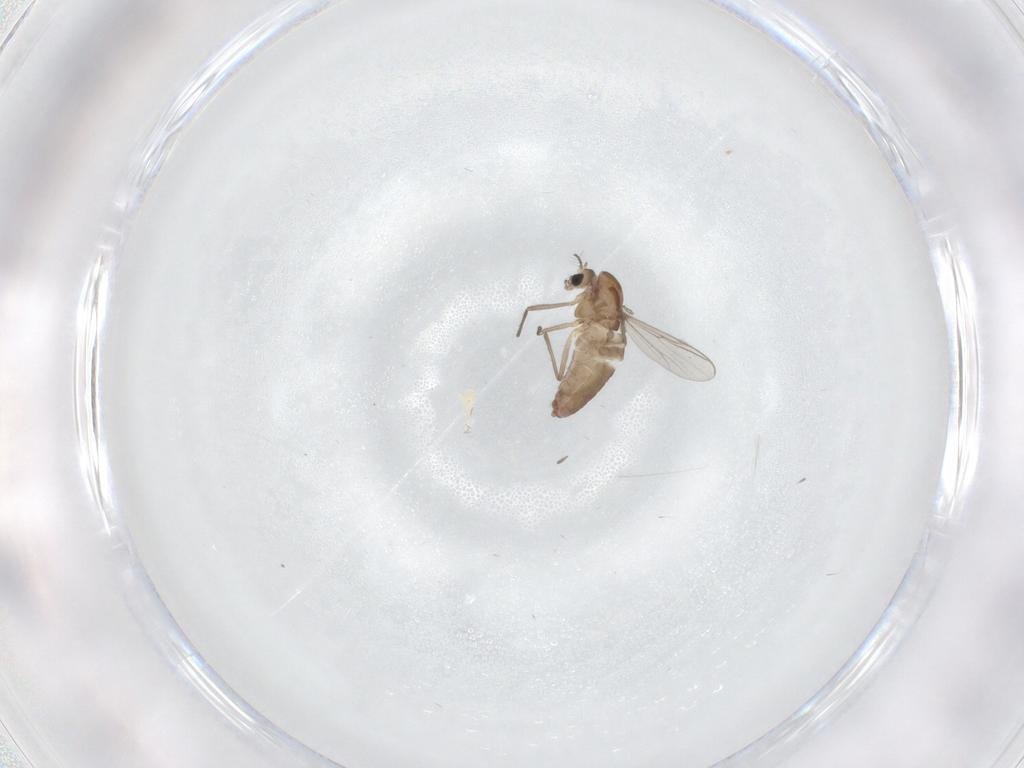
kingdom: Animalia
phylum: Arthropoda
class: Insecta
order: Diptera
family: Chironomidae
